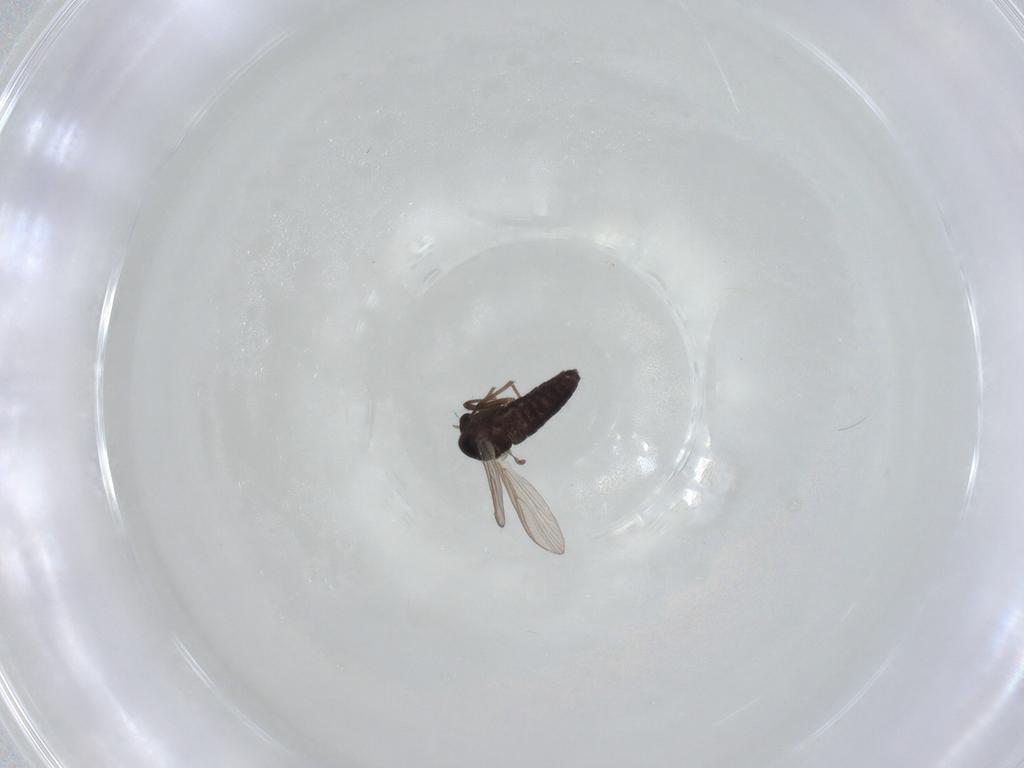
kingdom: Animalia
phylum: Arthropoda
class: Insecta
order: Diptera
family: Chironomidae
